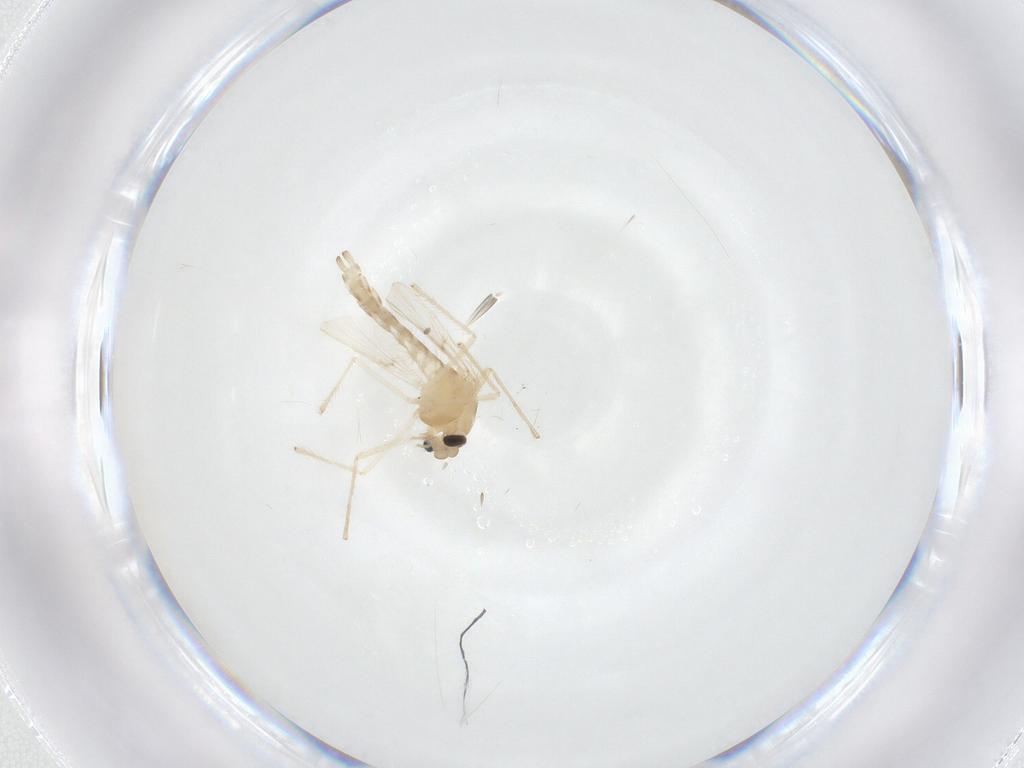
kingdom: Animalia
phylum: Arthropoda
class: Insecta
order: Diptera
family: Chironomidae
